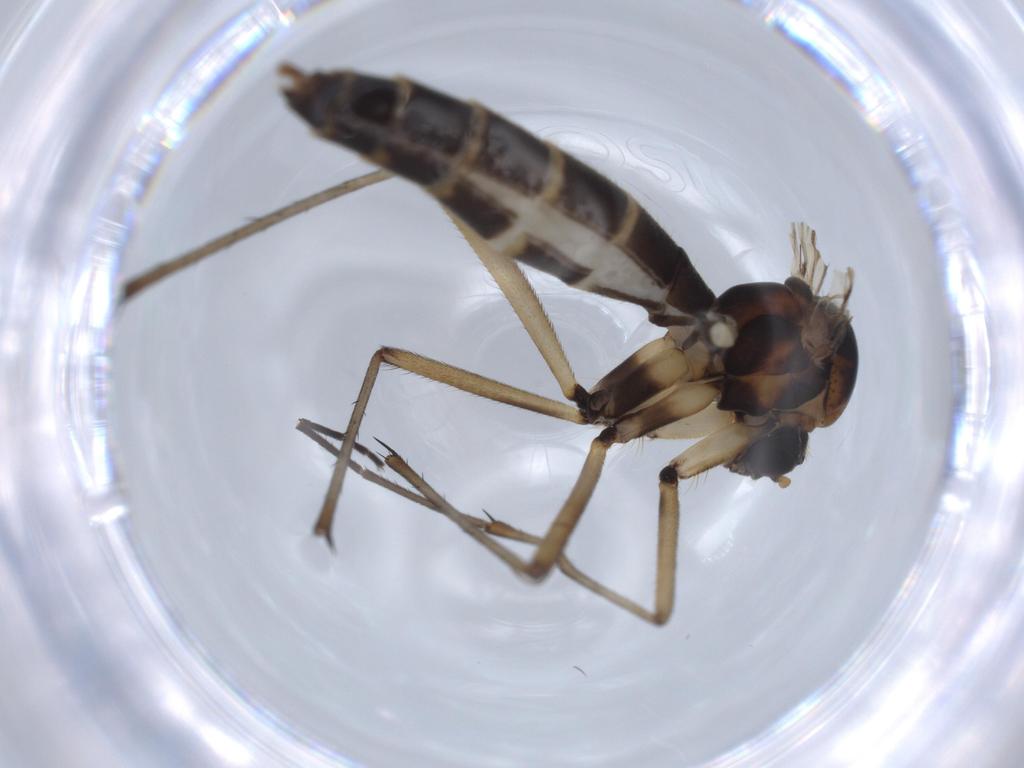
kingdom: Animalia
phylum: Arthropoda
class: Insecta
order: Diptera
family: Mycetophilidae
